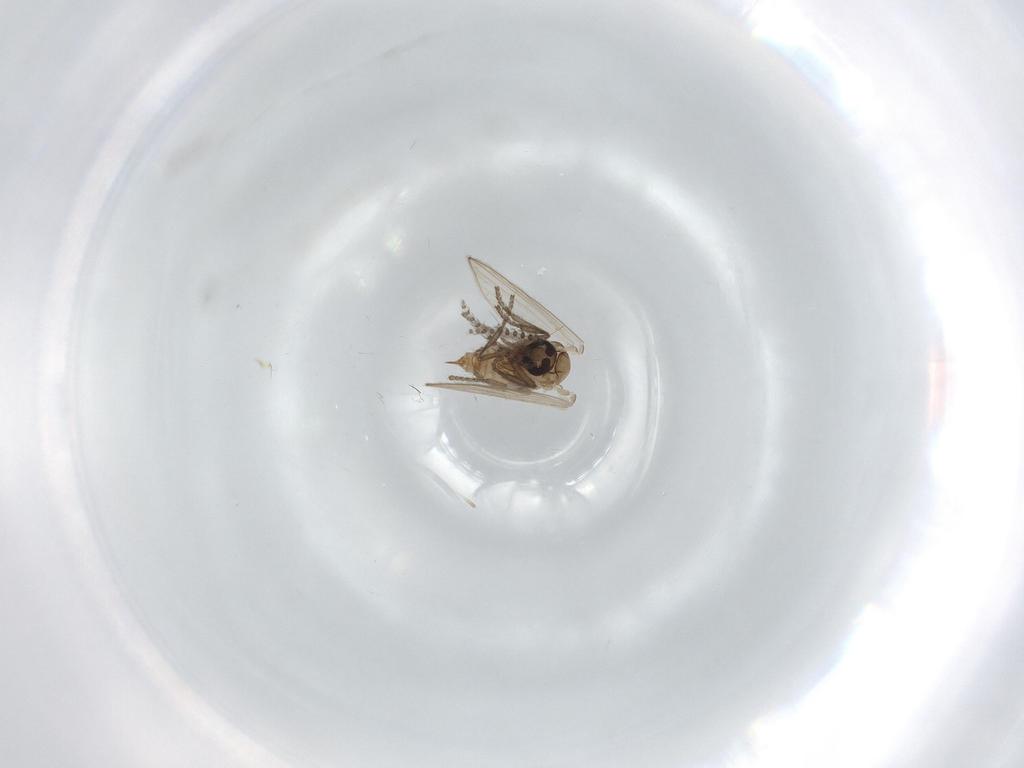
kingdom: Animalia
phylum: Arthropoda
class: Insecta
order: Diptera
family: Psychodidae
